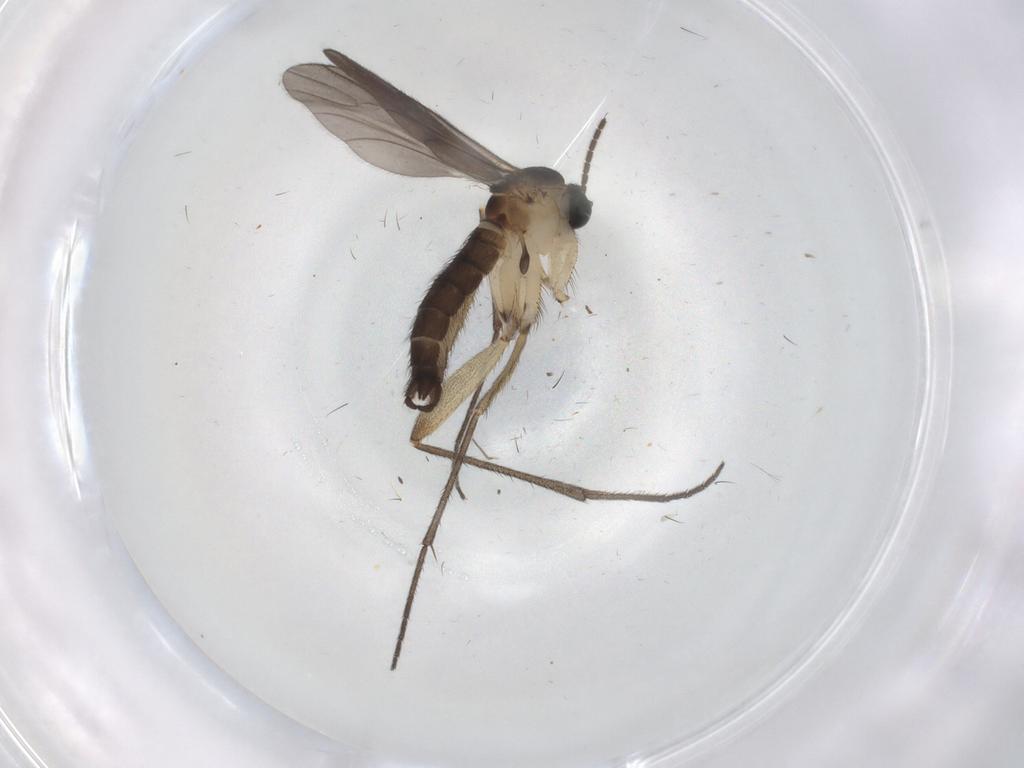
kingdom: Animalia
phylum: Arthropoda
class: Insecta
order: Diptera
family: Sciaridae
